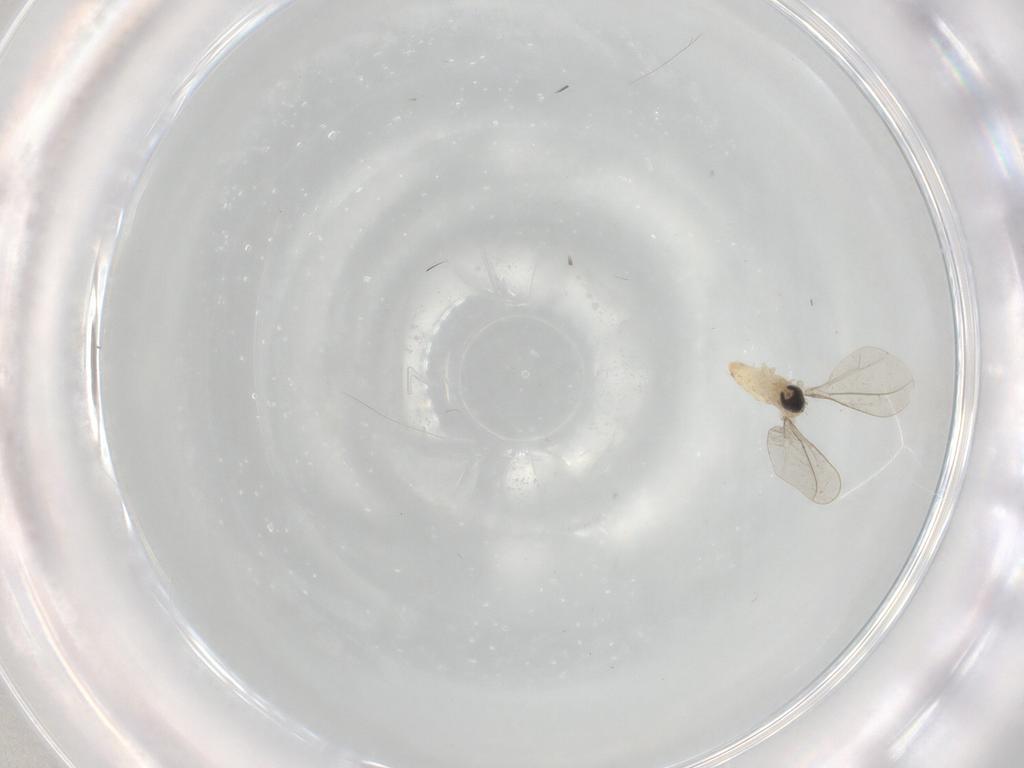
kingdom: Animalia
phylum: Arthropoda
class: Insecta
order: Diptera
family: Cecidomyiidae
